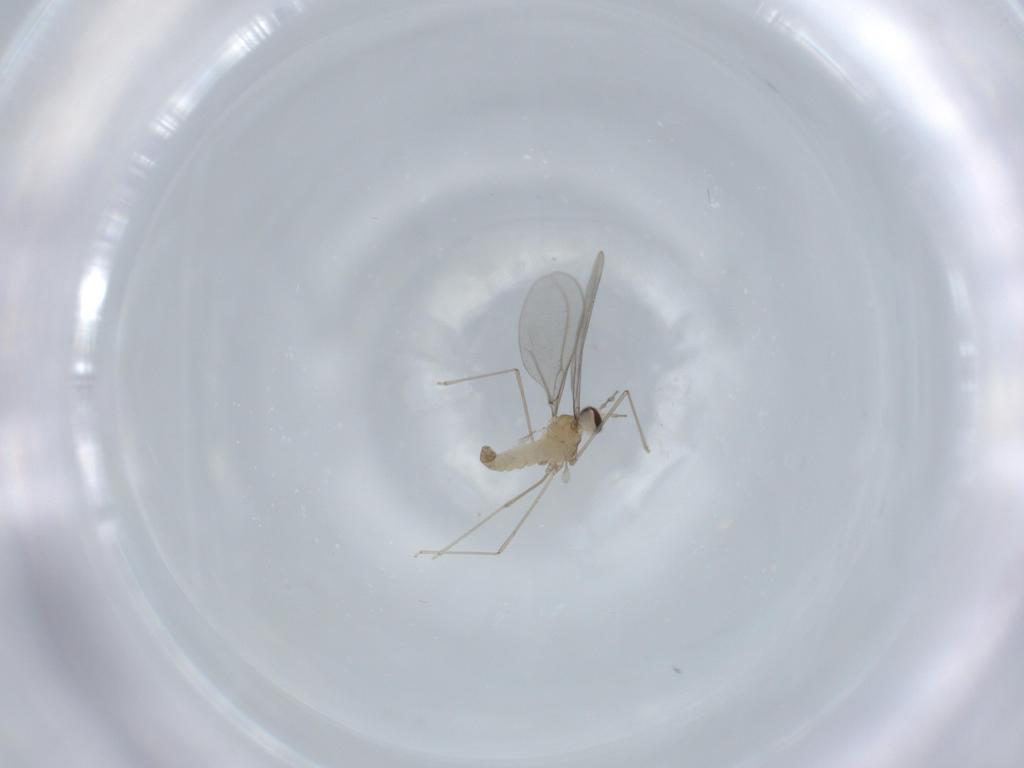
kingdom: Animalia
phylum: Arthropoda
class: Insecta
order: Diptera
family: Cecidomyiidae
